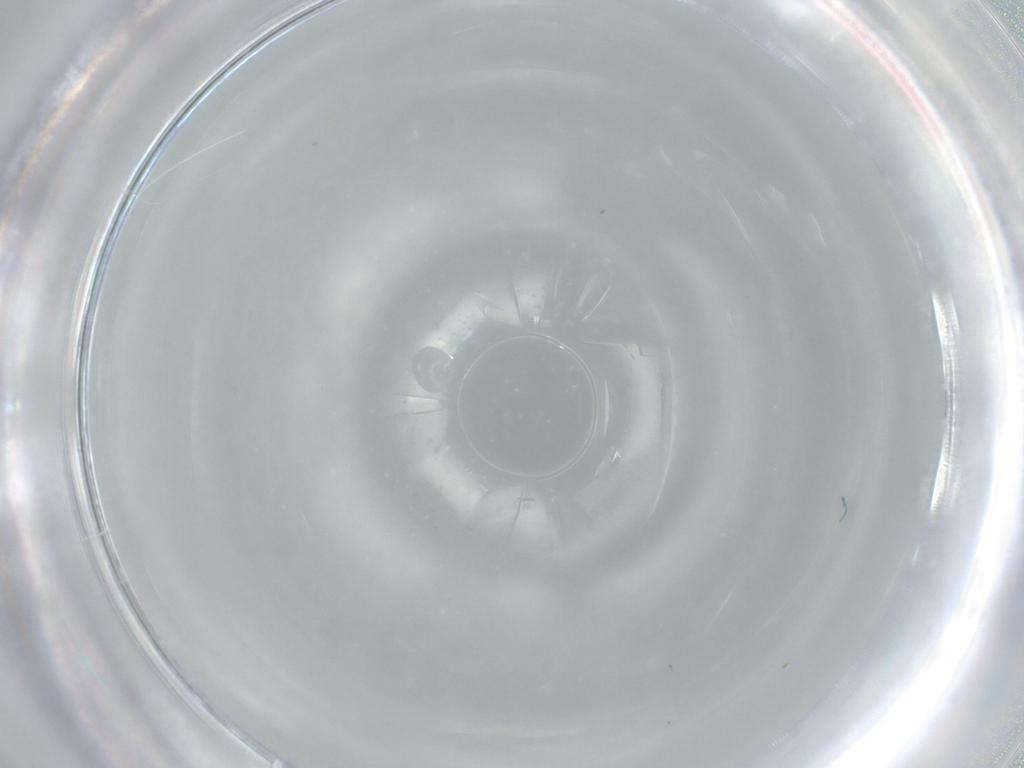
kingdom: Animalia
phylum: Arthropoda
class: Insecta
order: Diptera
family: Ceratopogonidae
